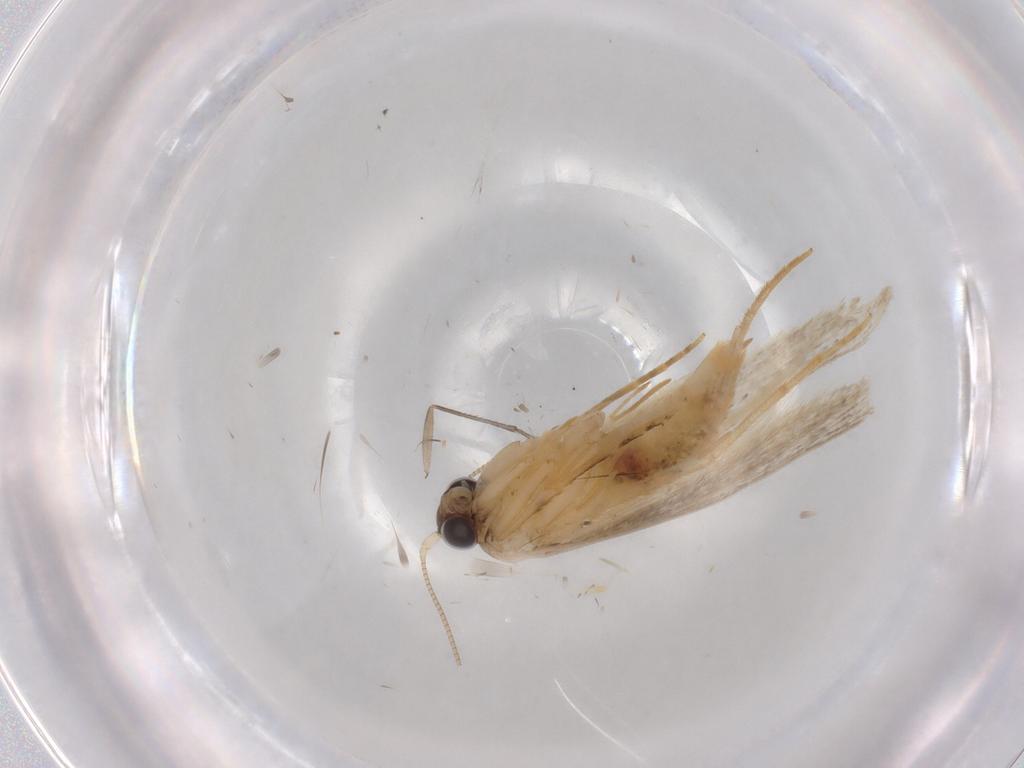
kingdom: Animalia
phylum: Arthropoda
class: Insecta
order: Lepidoptera
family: Tineidae
